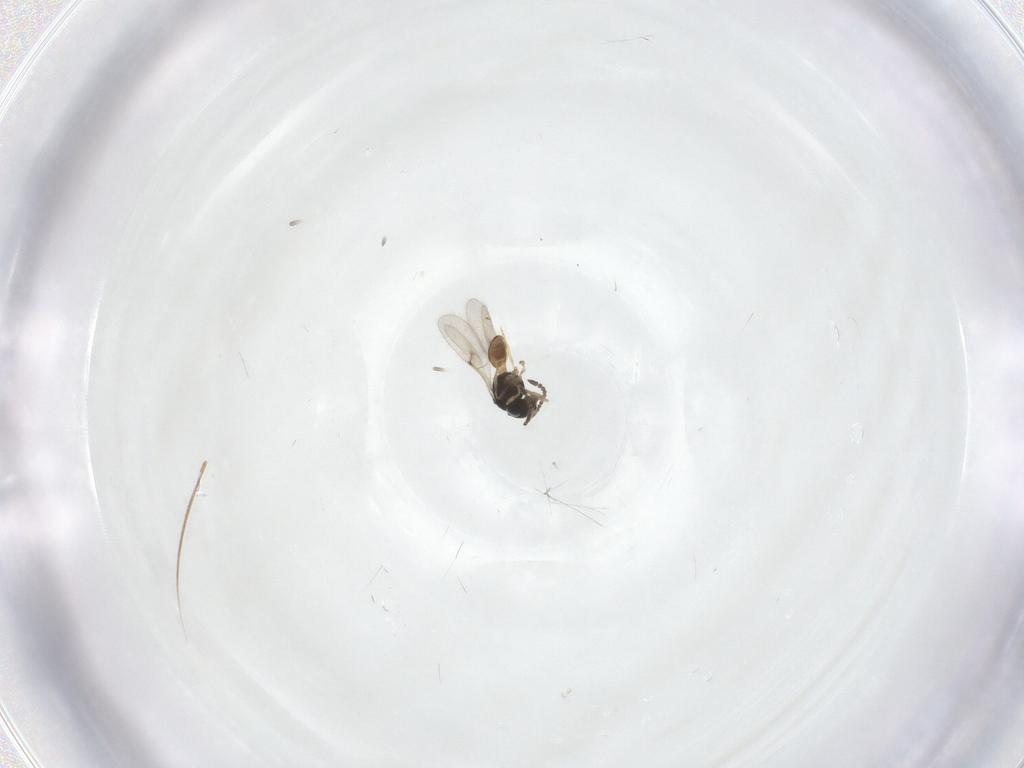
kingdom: Animalia
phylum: Arthropoda
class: Arachnida
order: Araneae
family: Pholcidae
